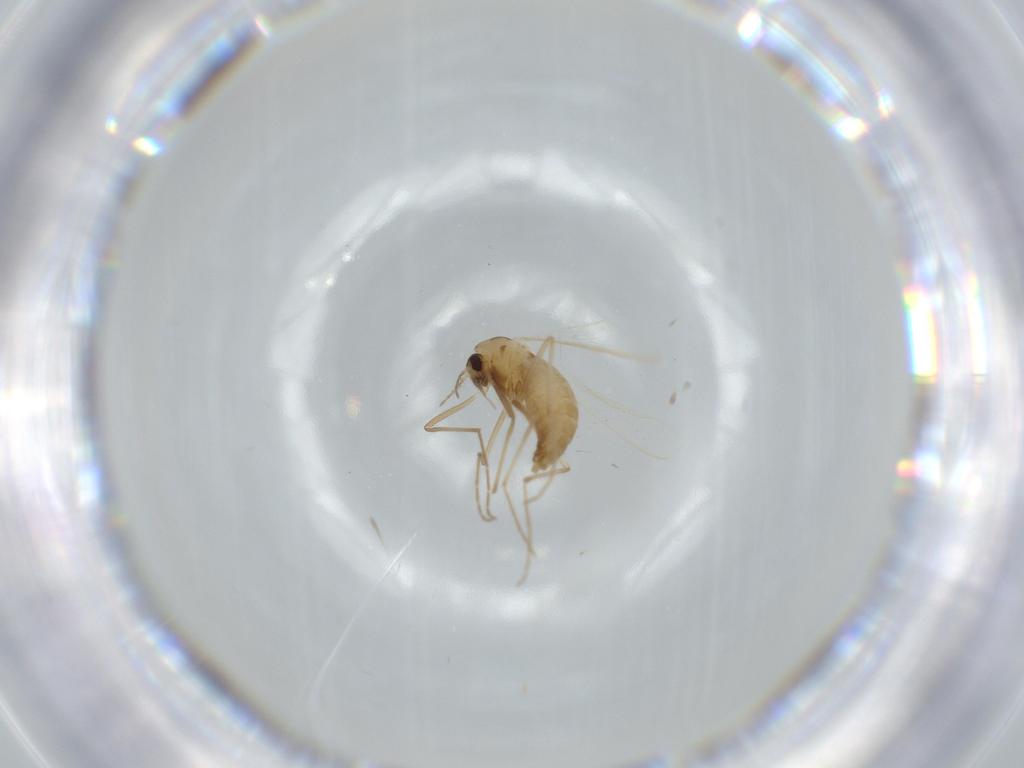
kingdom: Animalia
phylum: Arthropoda
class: Insecta
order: Diptera
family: Chironomidae
